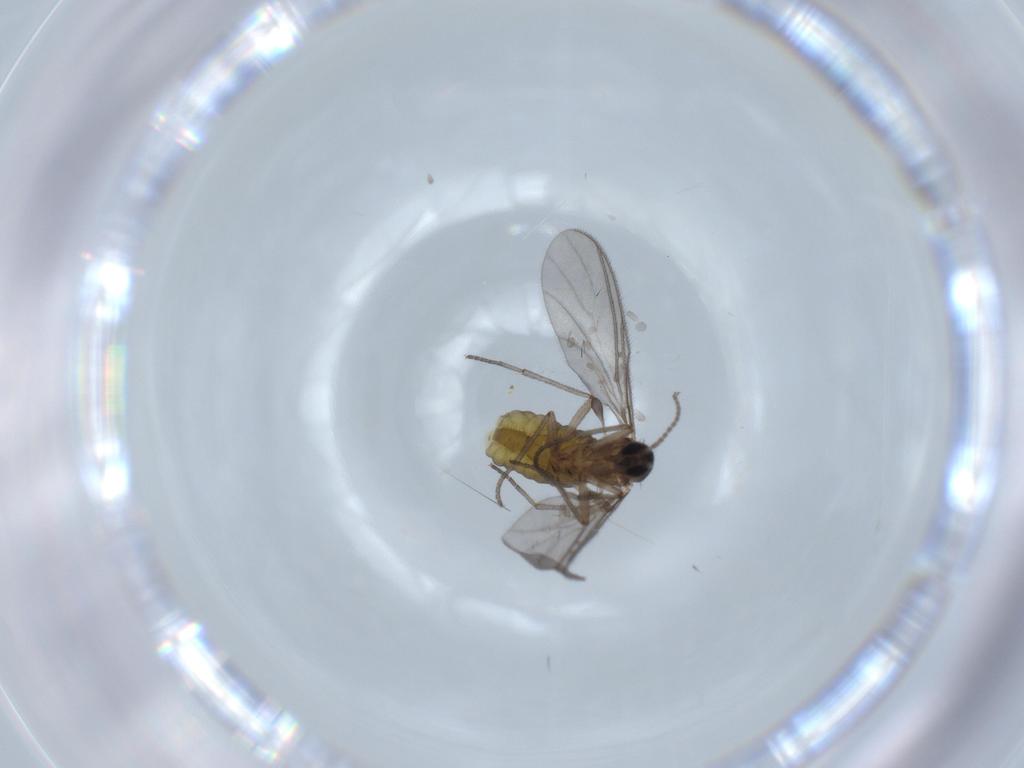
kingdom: Animalia
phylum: Arthropoda
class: Insecta
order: Diptera
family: Sciaridae
